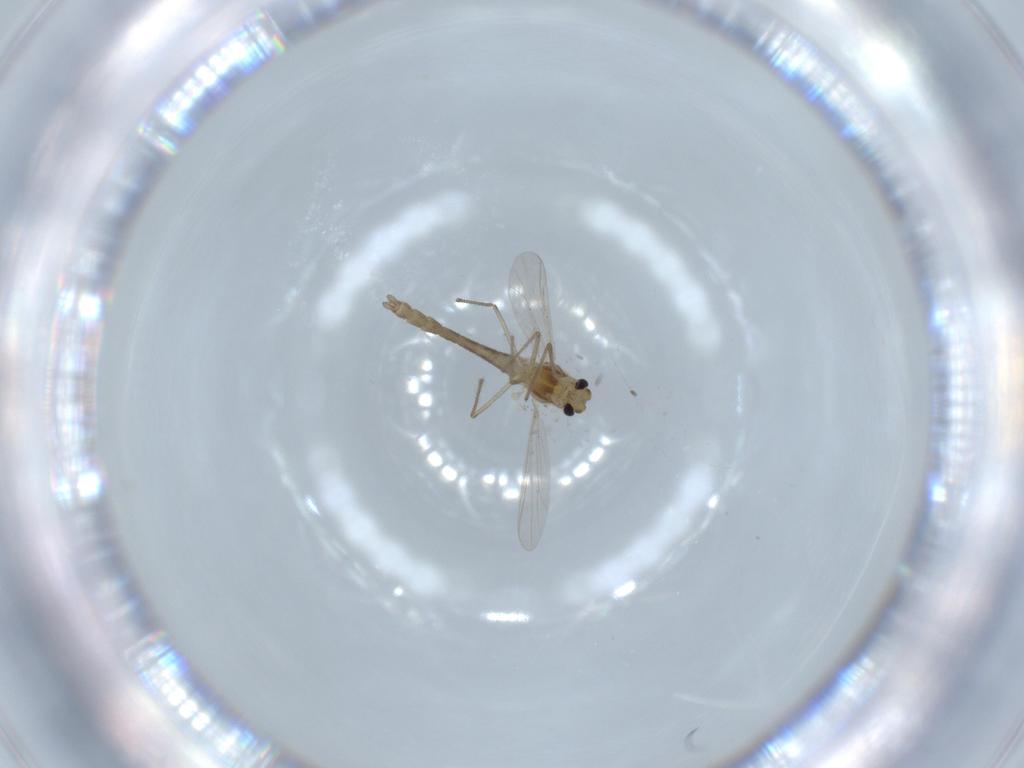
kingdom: Animalia
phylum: Arthropoda
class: Insecta
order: Diptera
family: Chironomidae
